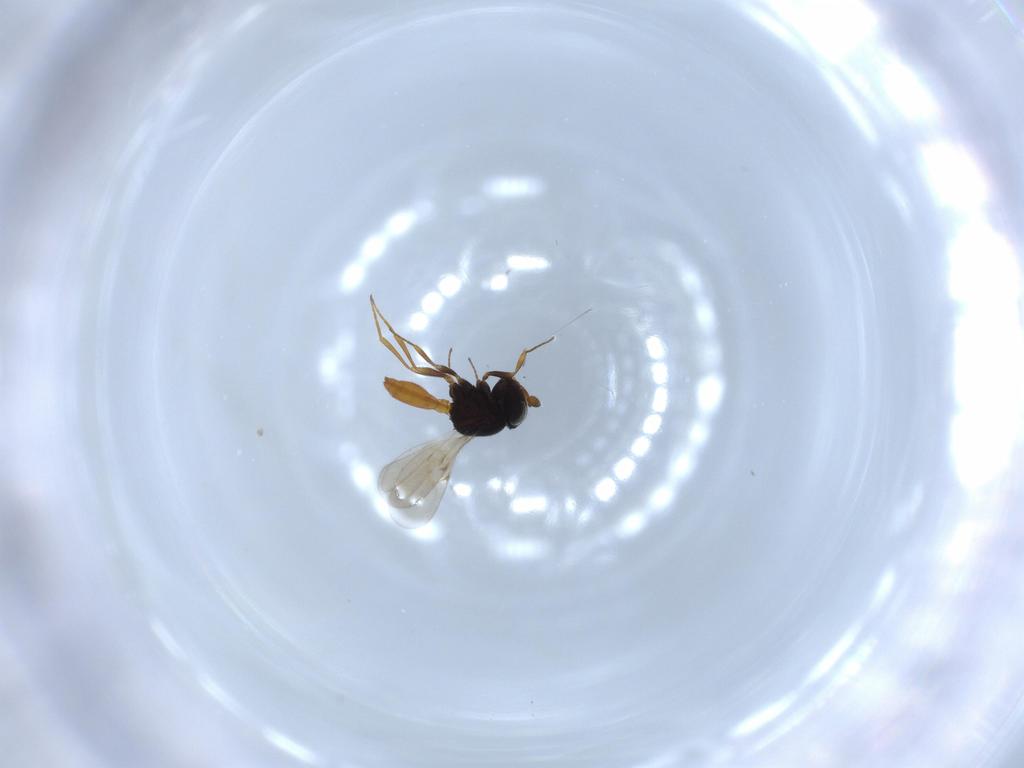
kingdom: Animalia
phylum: Arthropoda
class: Insecta
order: Hymenoptera
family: Scelionidae
